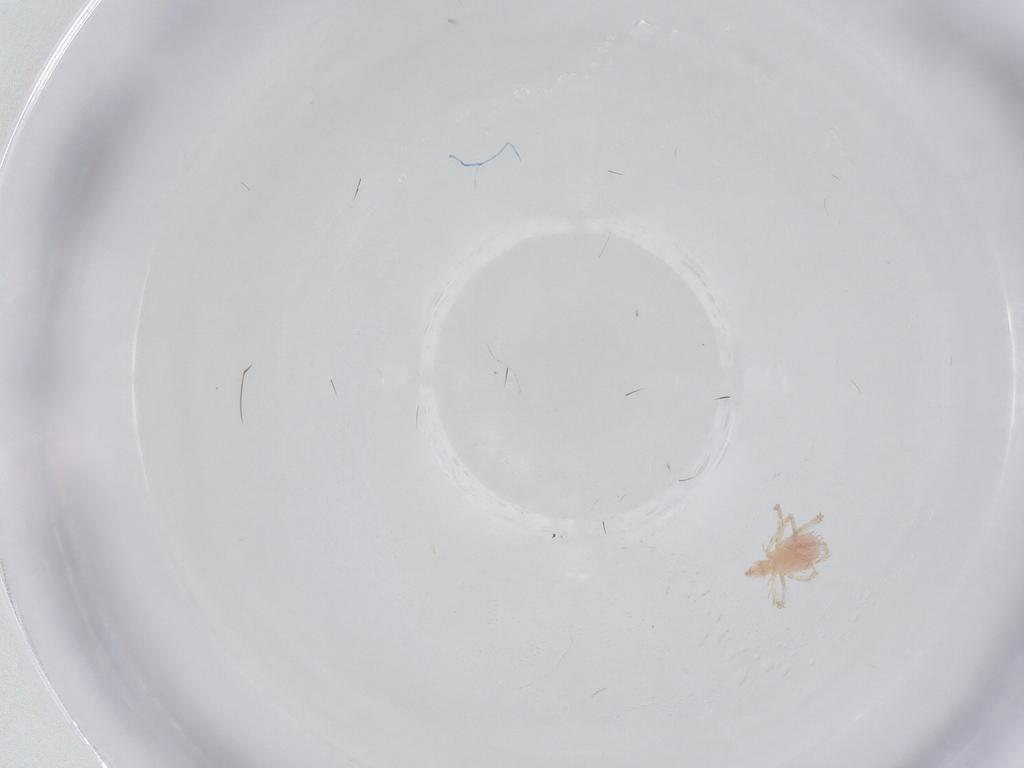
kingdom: Animalia
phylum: Arthropoda
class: Arachnida
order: Trombidiformes
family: Erythraeidae
